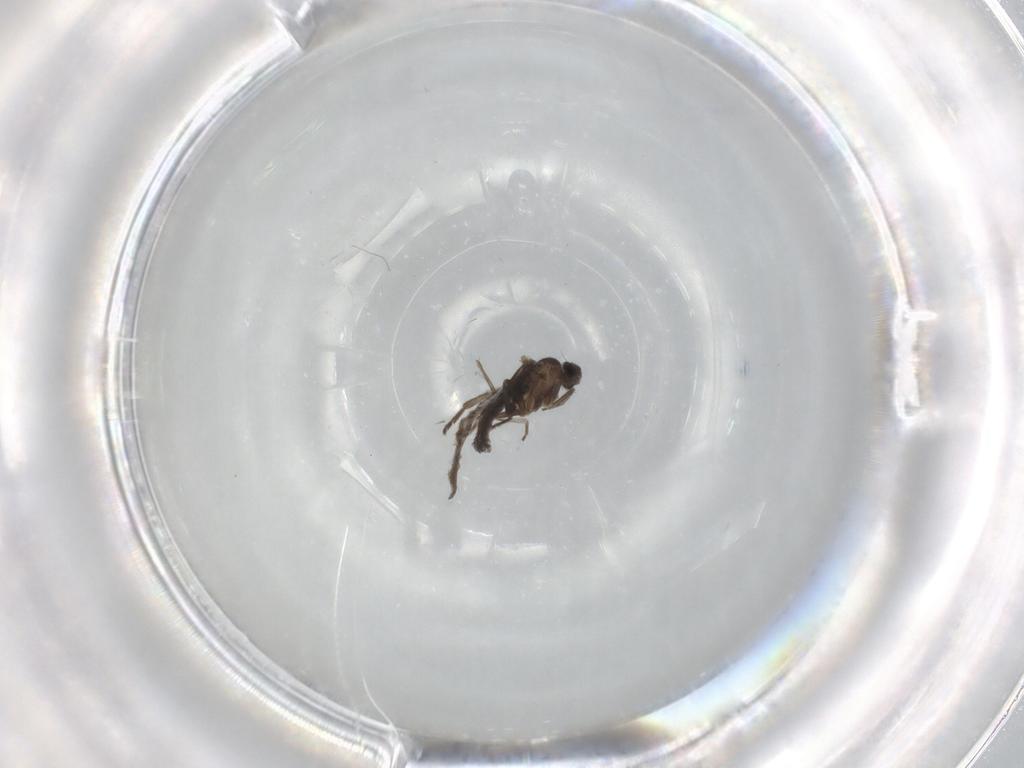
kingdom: Animalia
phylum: Arthropoda
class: Insecta
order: Diptera
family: Phoridae
